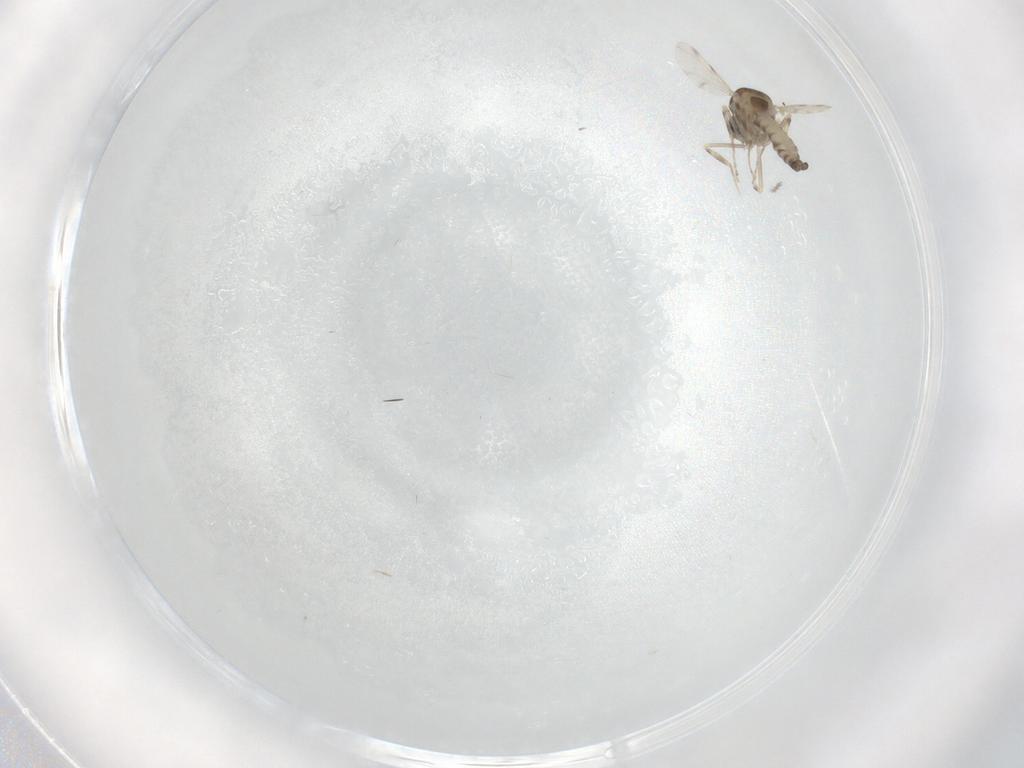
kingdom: Animalia
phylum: Arthropoda
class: Insecta
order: Diptera
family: Ceratopogonidae
